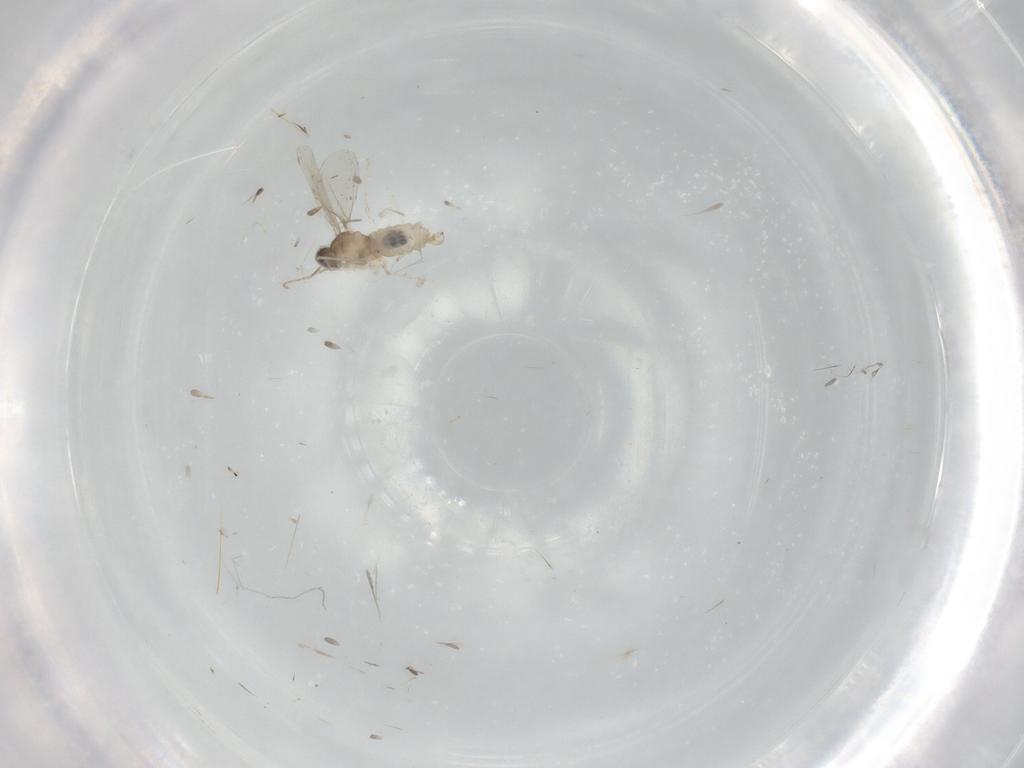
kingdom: Animalia
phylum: Arthropoda
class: Insecta
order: Diptera
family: Cecidomyiidae
